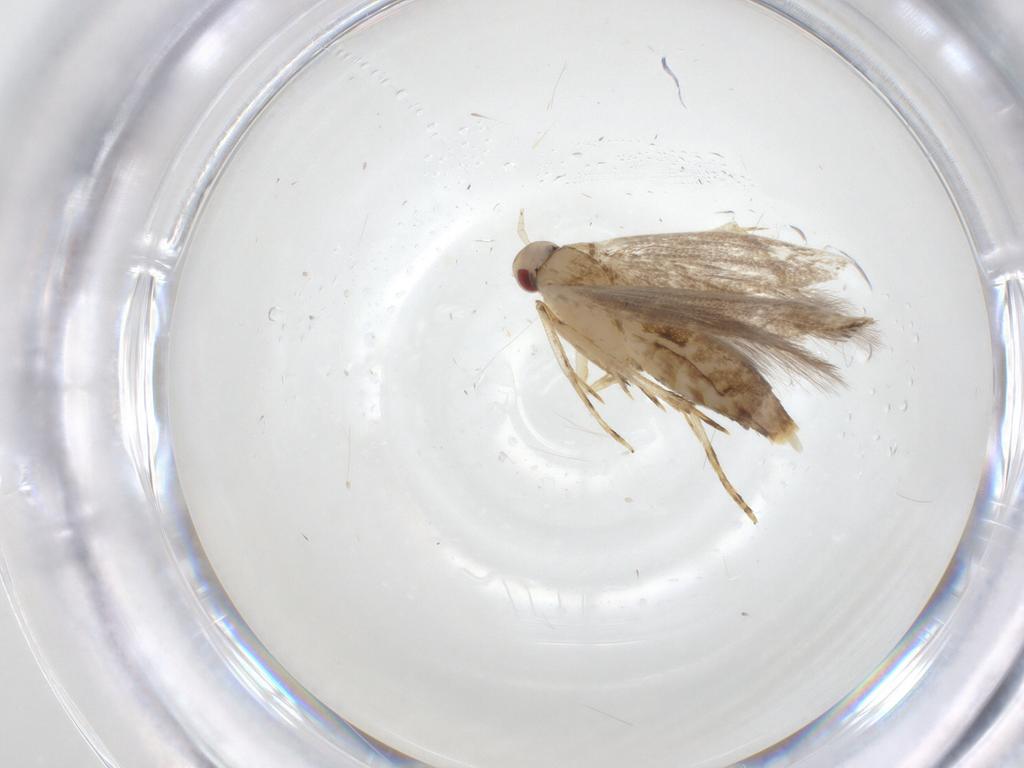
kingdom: Animalia
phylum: Arthropoda
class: Insecta
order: Lepidoptera
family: Cosmopterigidae
